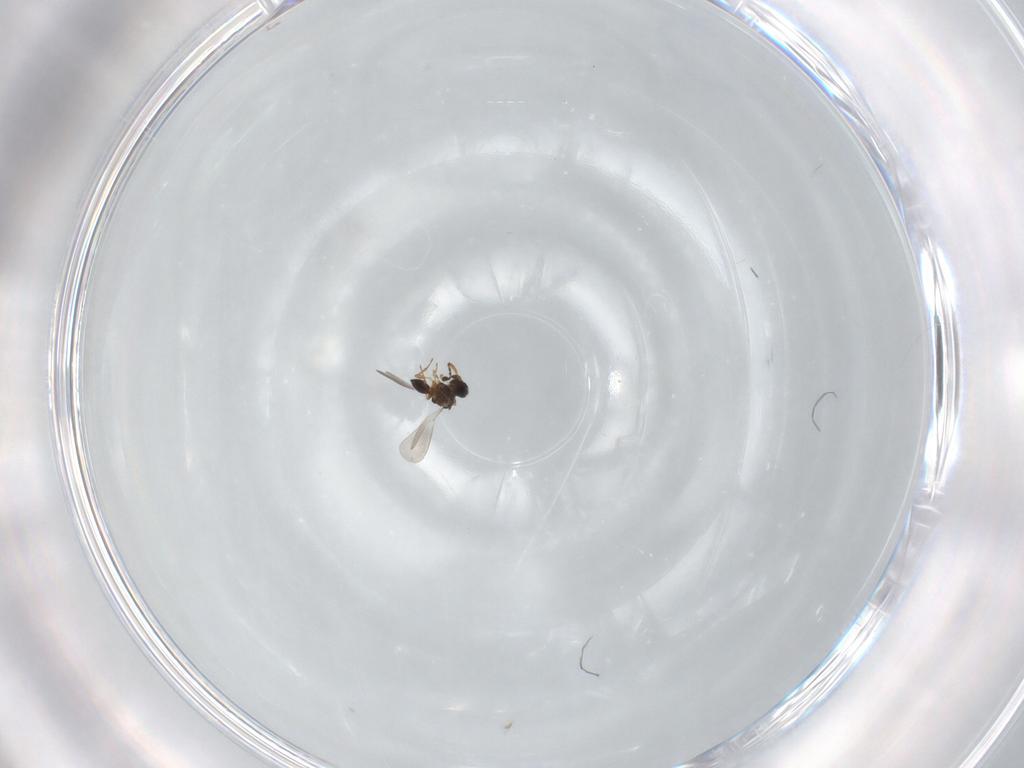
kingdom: Animalia
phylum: Arthropoda
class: Insecta
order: Hymenoptera
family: Platygastridae
